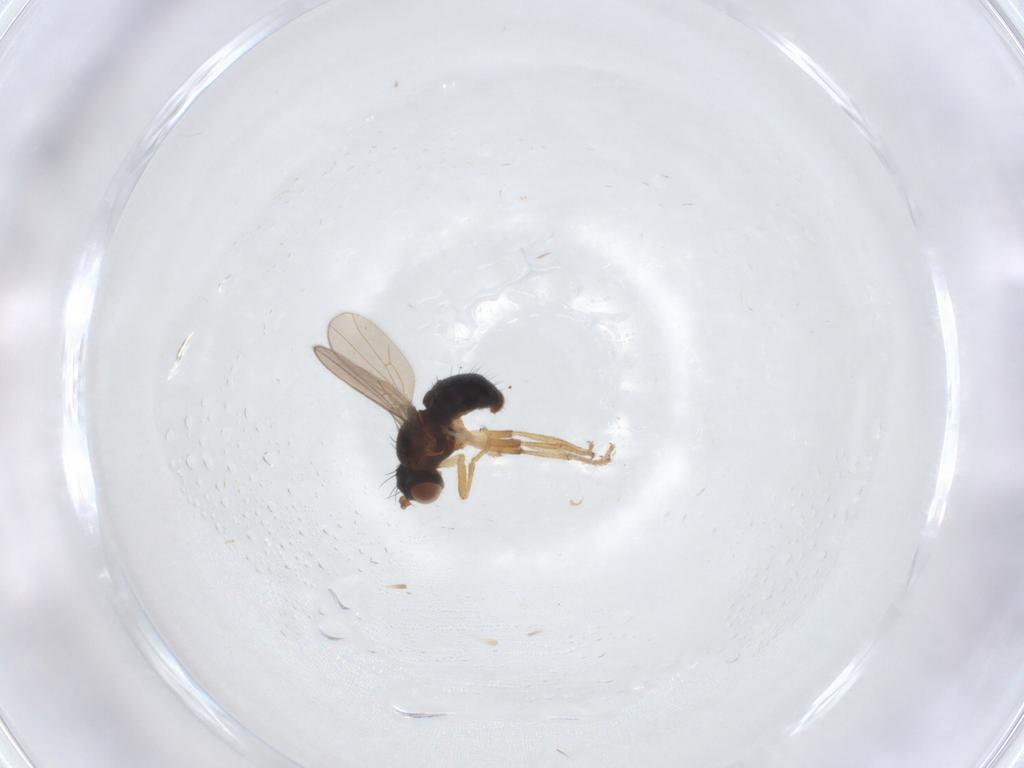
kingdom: Animalia
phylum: Arthropoda
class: Insecta
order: Diptera
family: Ephydridae
